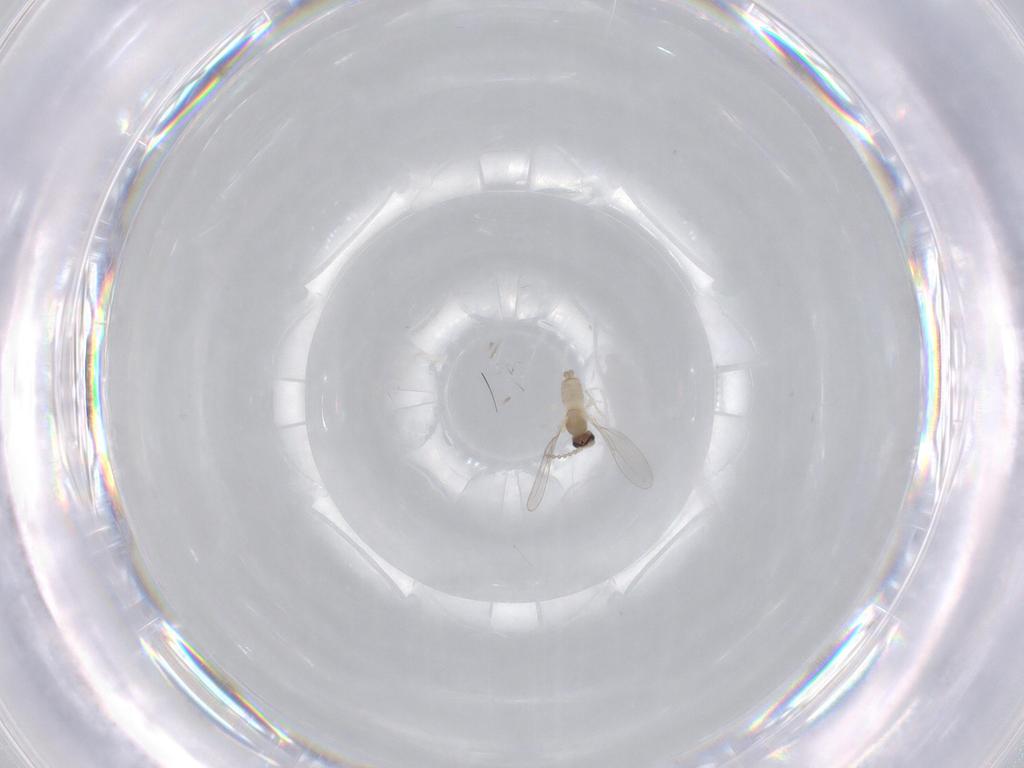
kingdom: Animalia
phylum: Arthropoda
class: Insecta
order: Diptera
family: Cecidomyiidae
